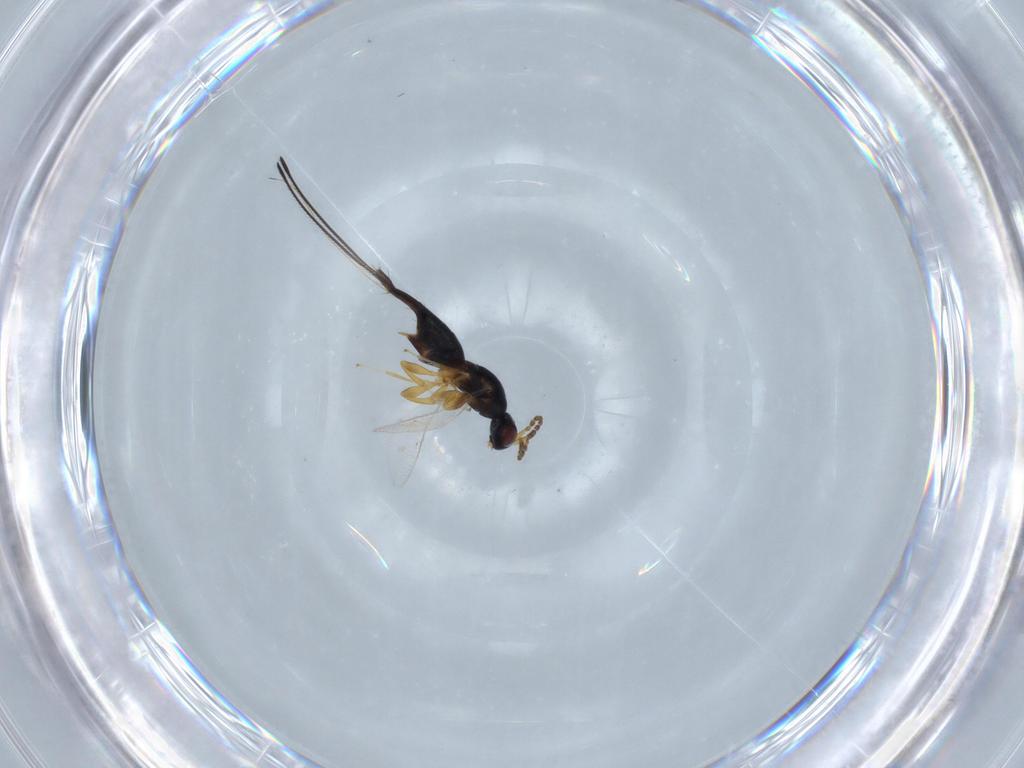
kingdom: Animalia
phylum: Arthropoda
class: Insecta
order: Hymenoptera
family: Agaonidae
